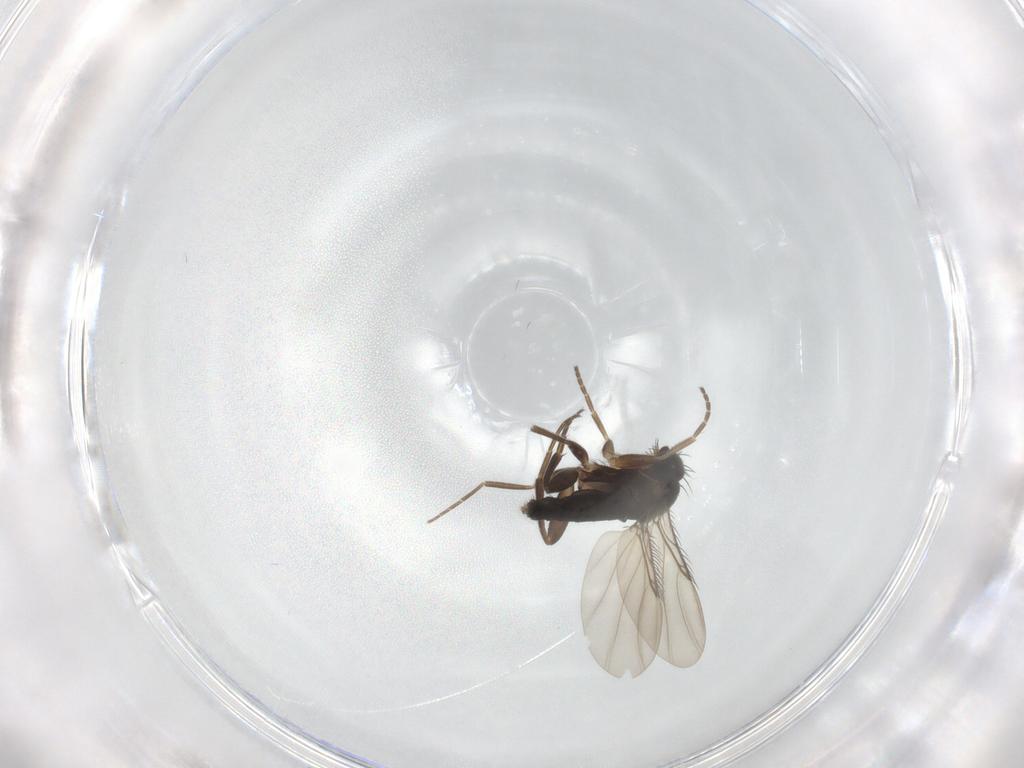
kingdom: Animalia
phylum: Arthropoda
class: Insecta
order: Diptera
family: Phoridae
